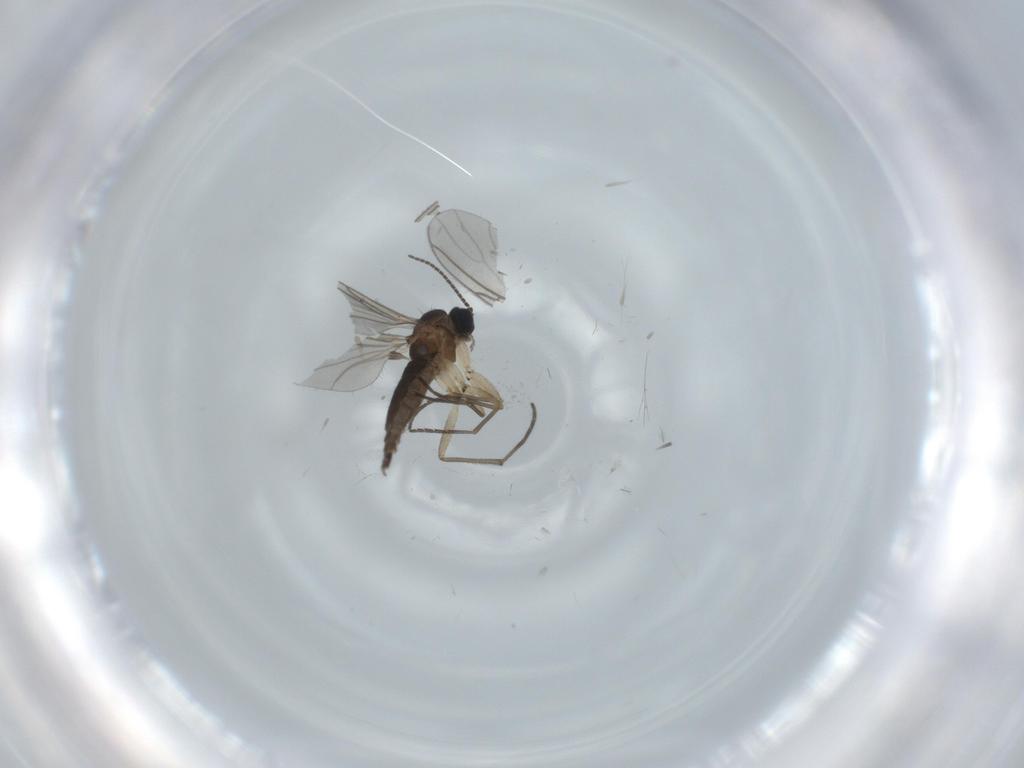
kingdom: Animalia
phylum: Arthropoda
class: Insecta
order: Diptera
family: Sciaridae
